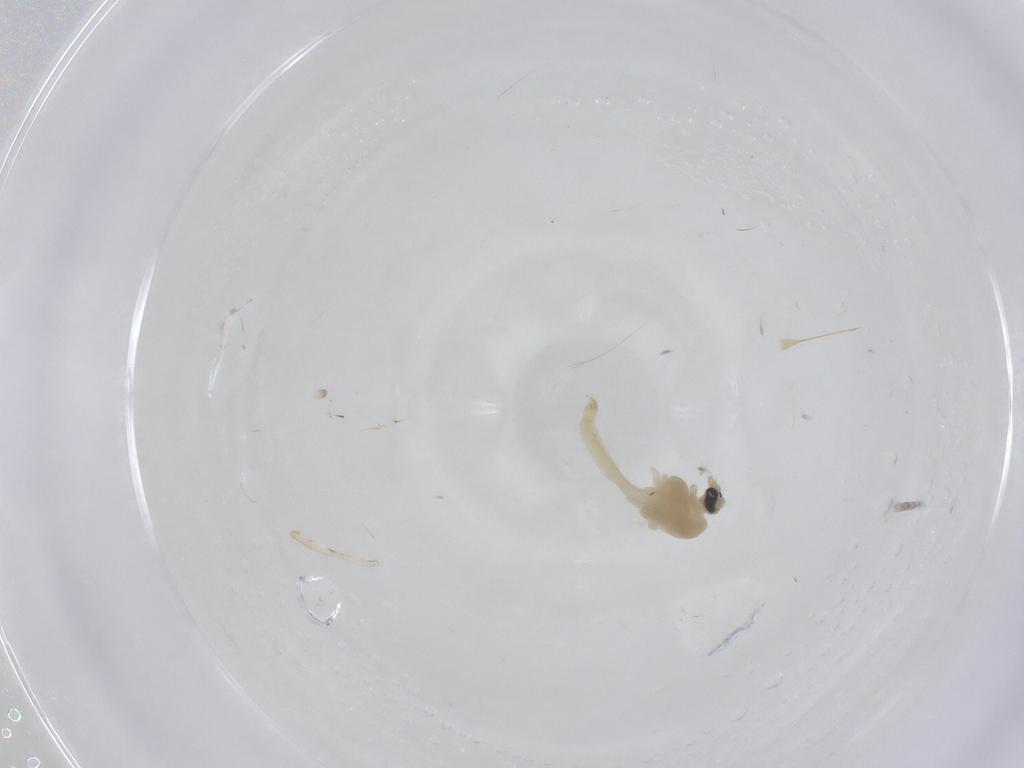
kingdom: Animalia
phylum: Arthropoda
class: Insecta
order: Diptera
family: Chironomidae
